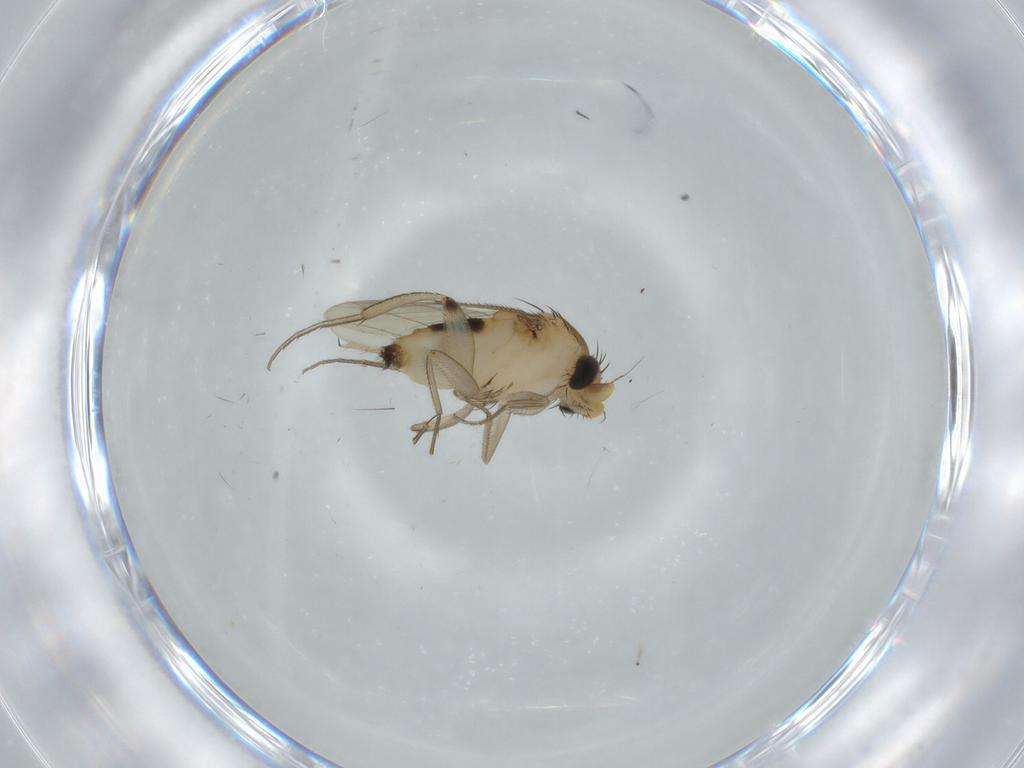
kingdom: Animalia
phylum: Arthropoda
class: Insecta
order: Diptera
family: Phoridae
